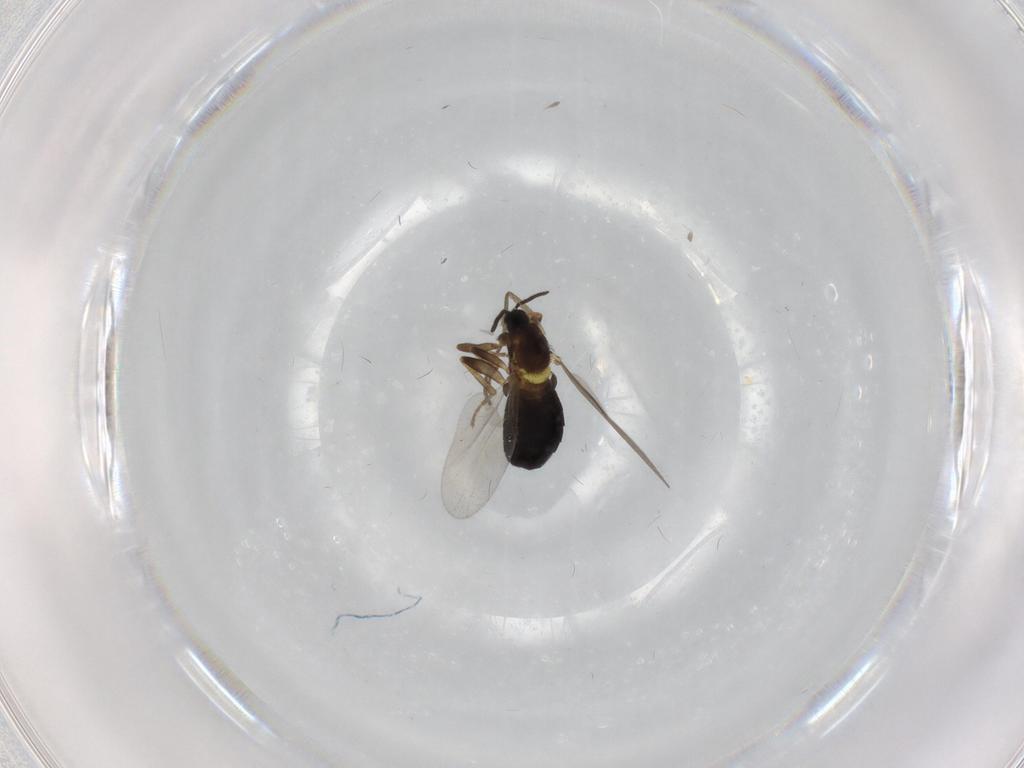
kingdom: Animalia
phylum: Arthropoda
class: Insecta
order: Diptera
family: Scatopsidae
